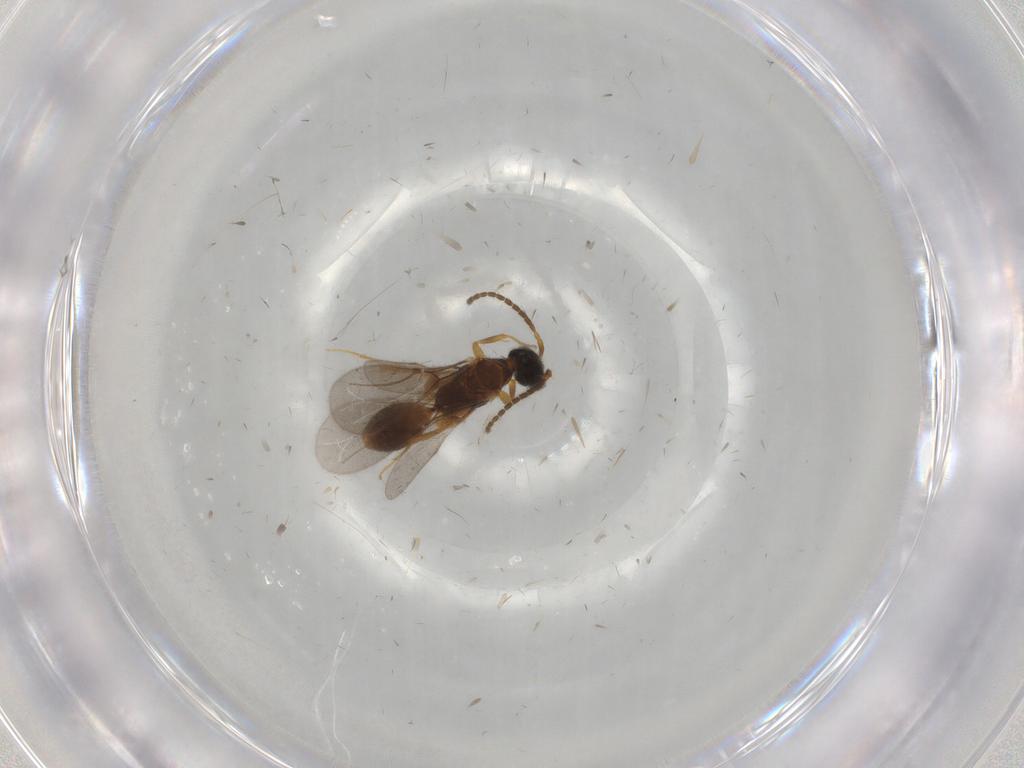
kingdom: Animalia
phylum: Arthropoda
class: Insecta
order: Hymenoptera
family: Bethylidae
